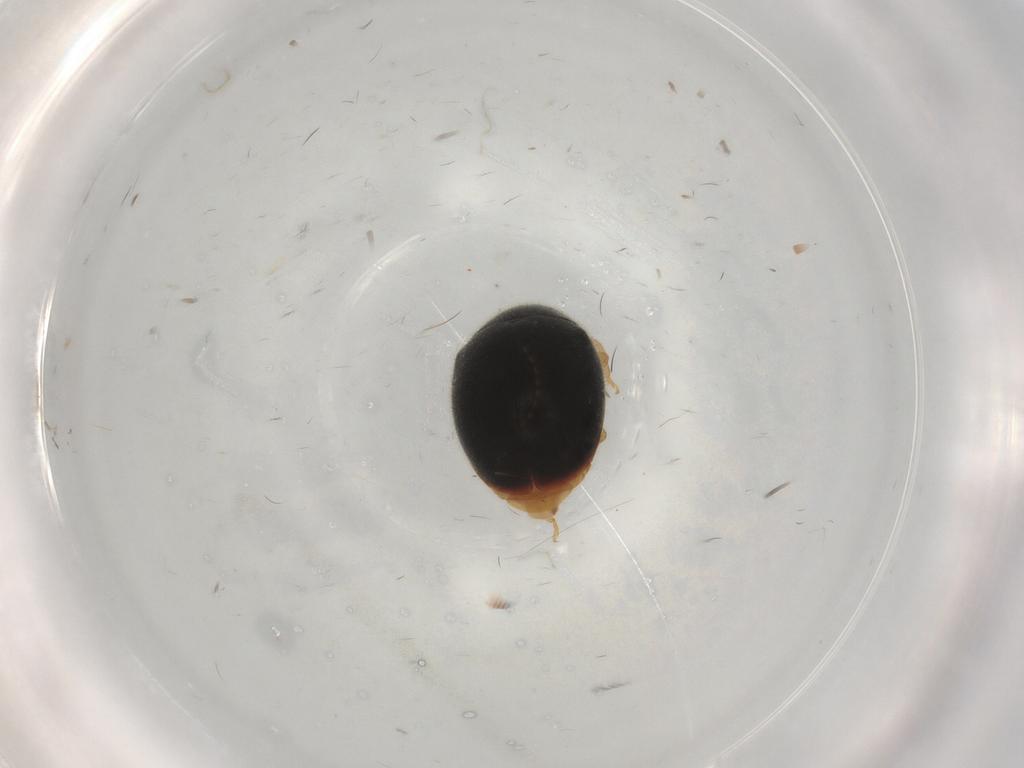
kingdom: Animalia
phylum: Arthropoda
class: Insecta
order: Coleoptera
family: Coccinellidae
